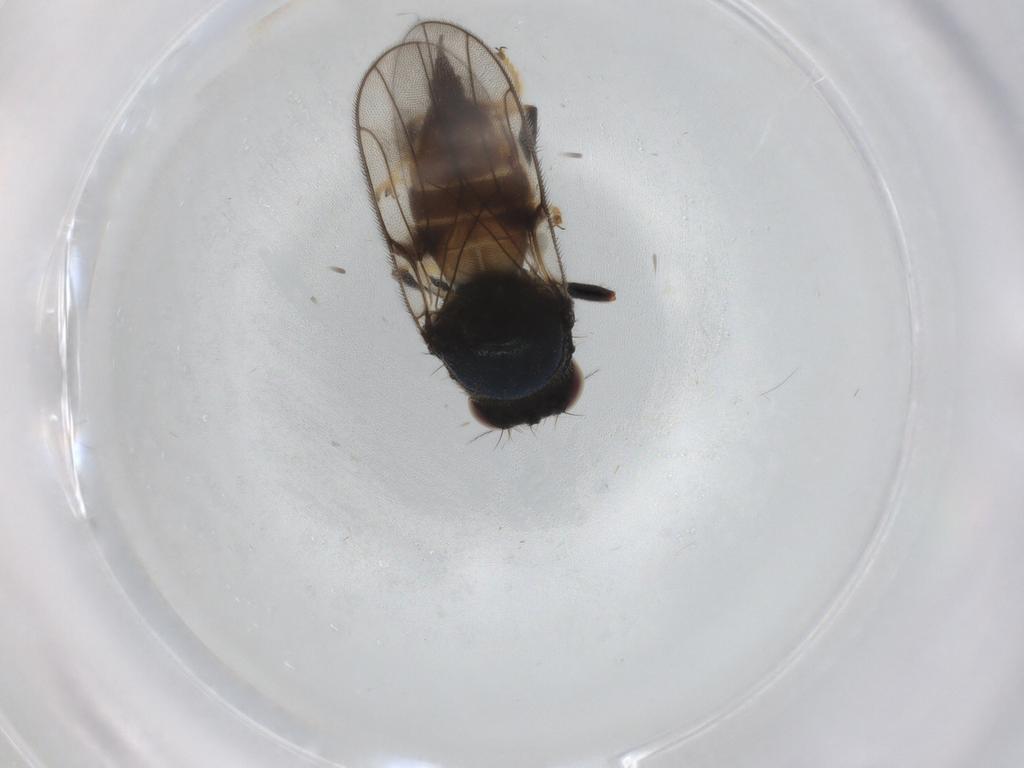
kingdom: Animalia
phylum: Arthropoda
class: Insecta
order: Diptera
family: Chloropidae
